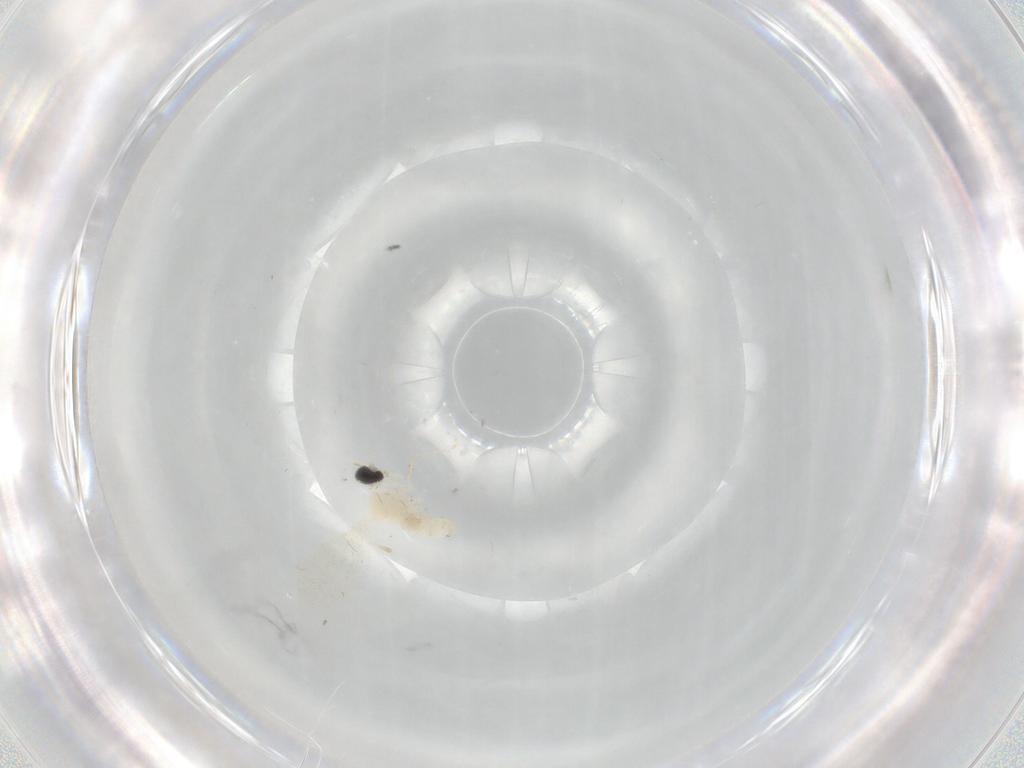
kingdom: Animalia
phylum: Arthropoda
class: Insecta
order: Diptera
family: Cecidomyiidae
